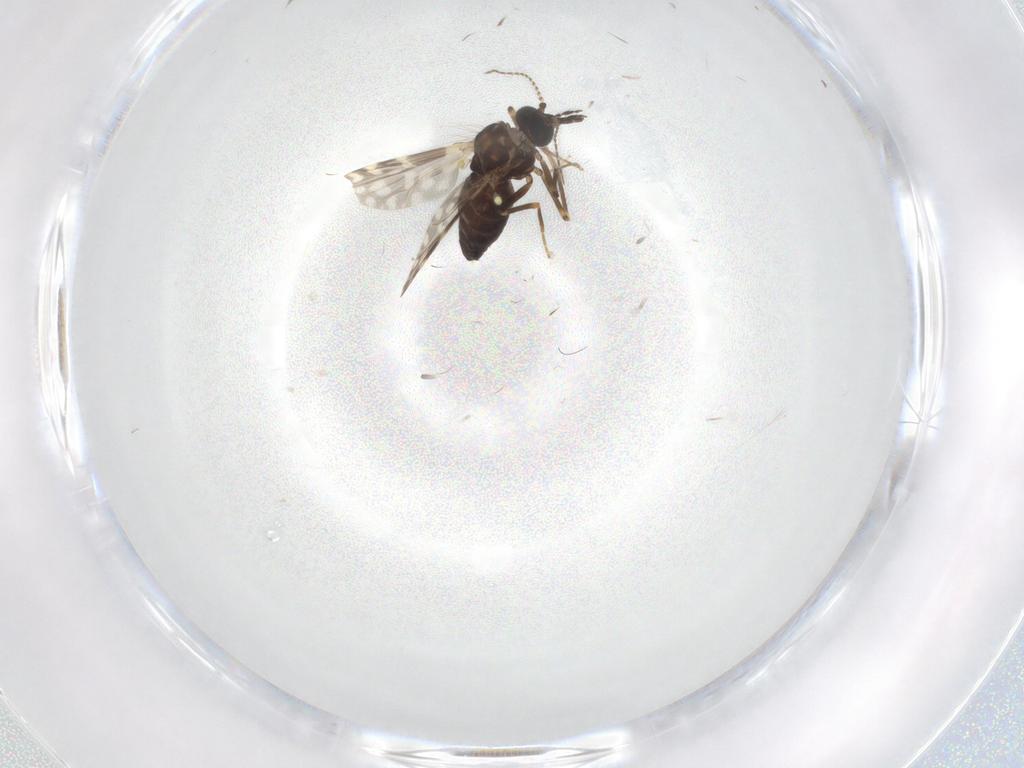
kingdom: Animalia
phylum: Arthropoda
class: Insecta
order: Diptera
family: Cecidomyiidae
